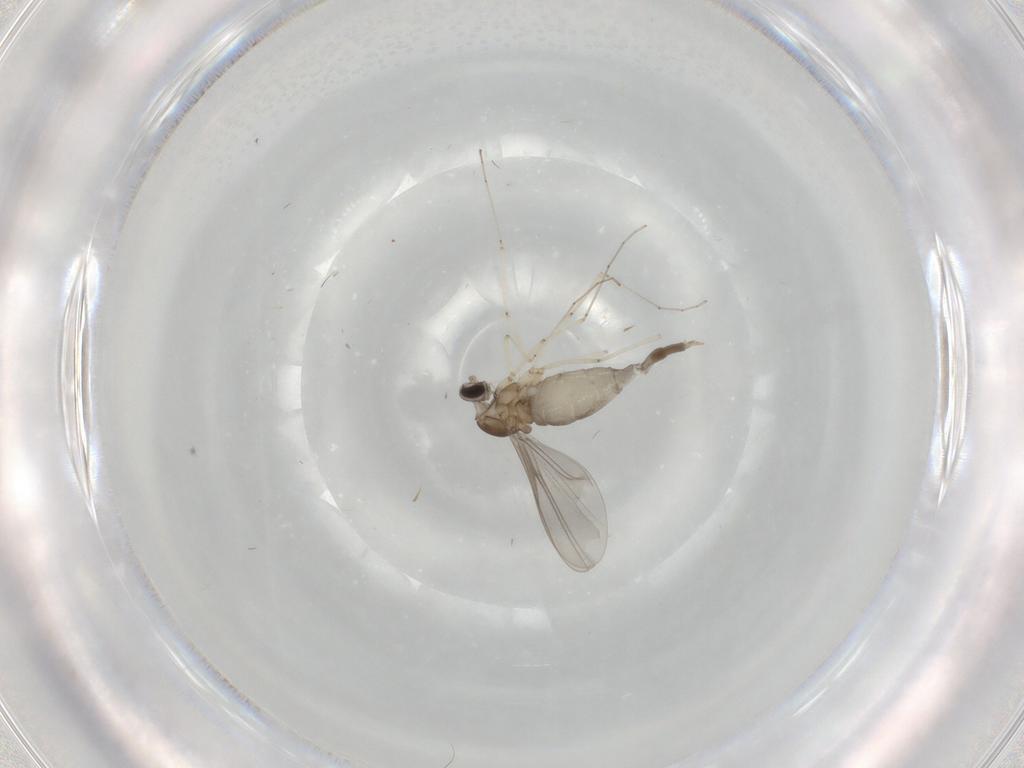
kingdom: Animalia
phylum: Arthropoda
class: Insecta
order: Diptera
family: Cecidomyiidae
